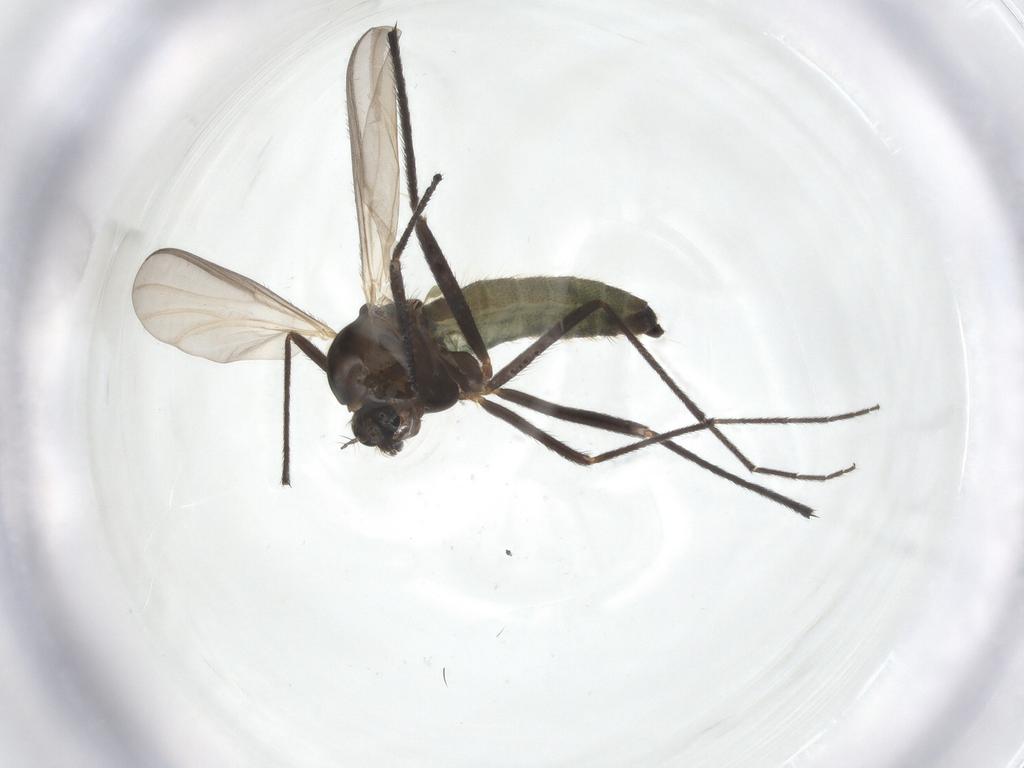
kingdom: Animalia
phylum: Arthropoda
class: Insecta
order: Diptera
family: Chironomidae
